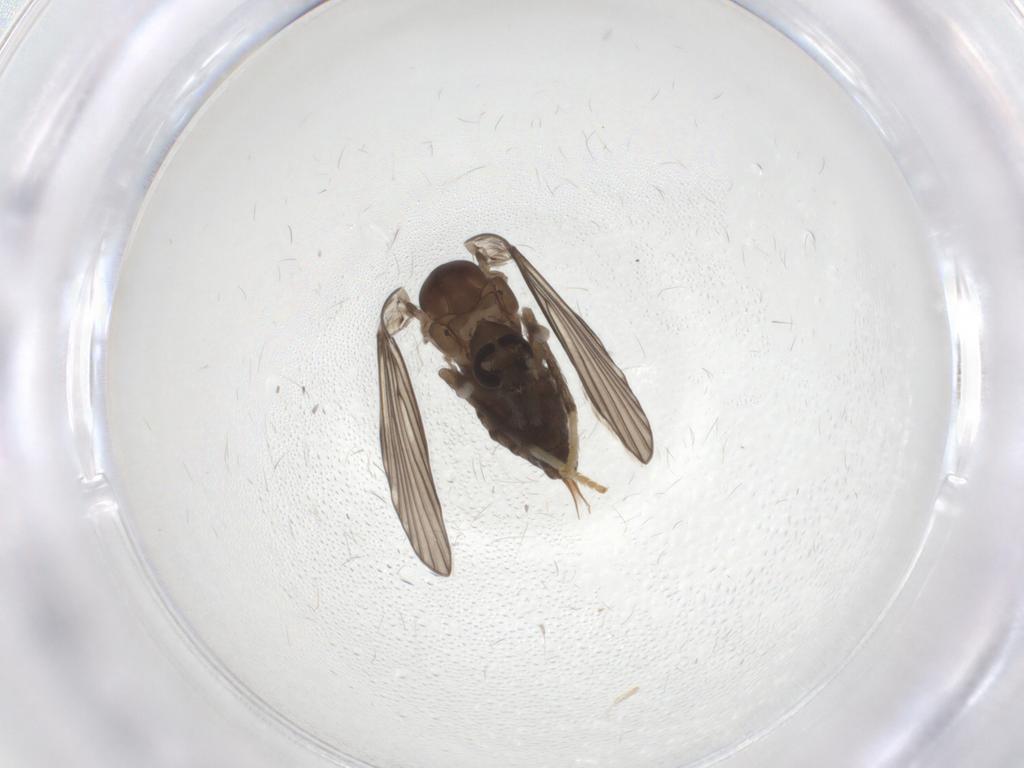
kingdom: Animalia
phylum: Arthropoda
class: Insecta
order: Diptera
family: Psychodidae
